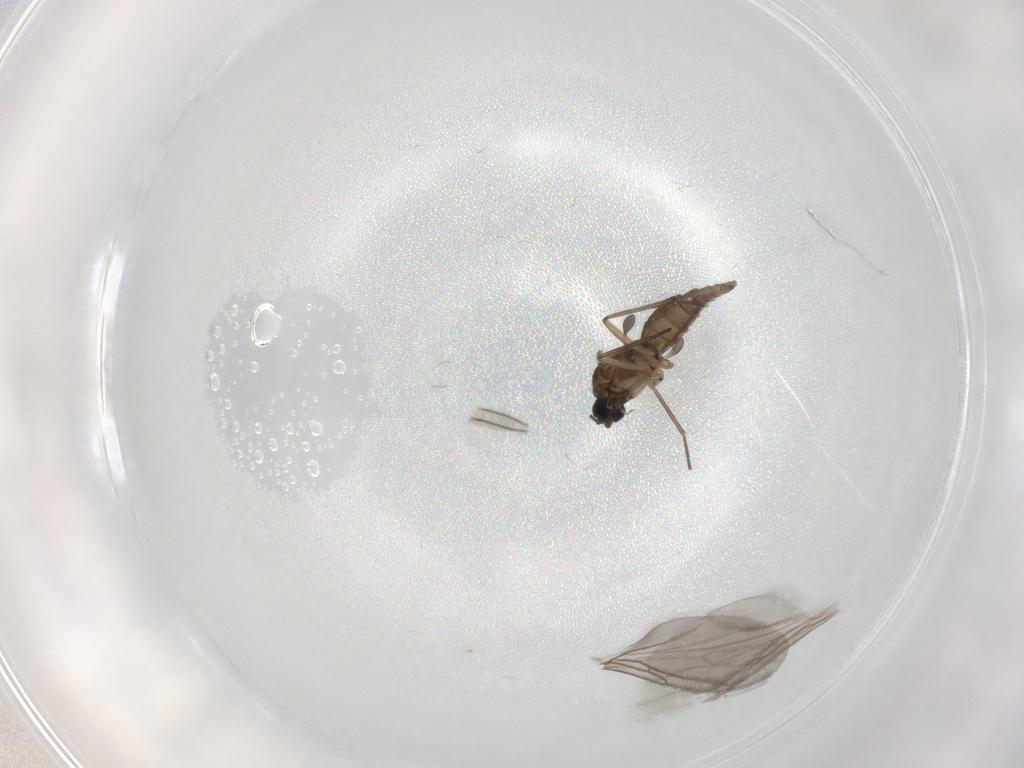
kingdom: Animalia
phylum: Arthropoda
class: Insecta
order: Diptera
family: Sciaridae
